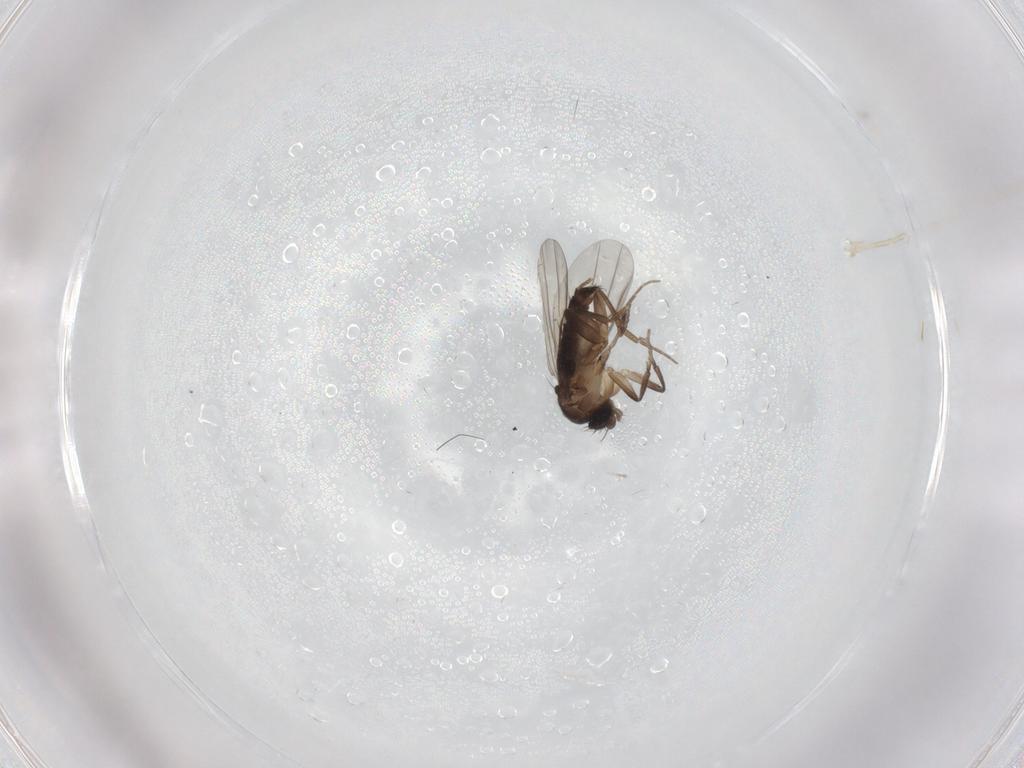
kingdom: Animalia
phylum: Arthropoda
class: Insecta
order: Diptera
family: Phoridae
